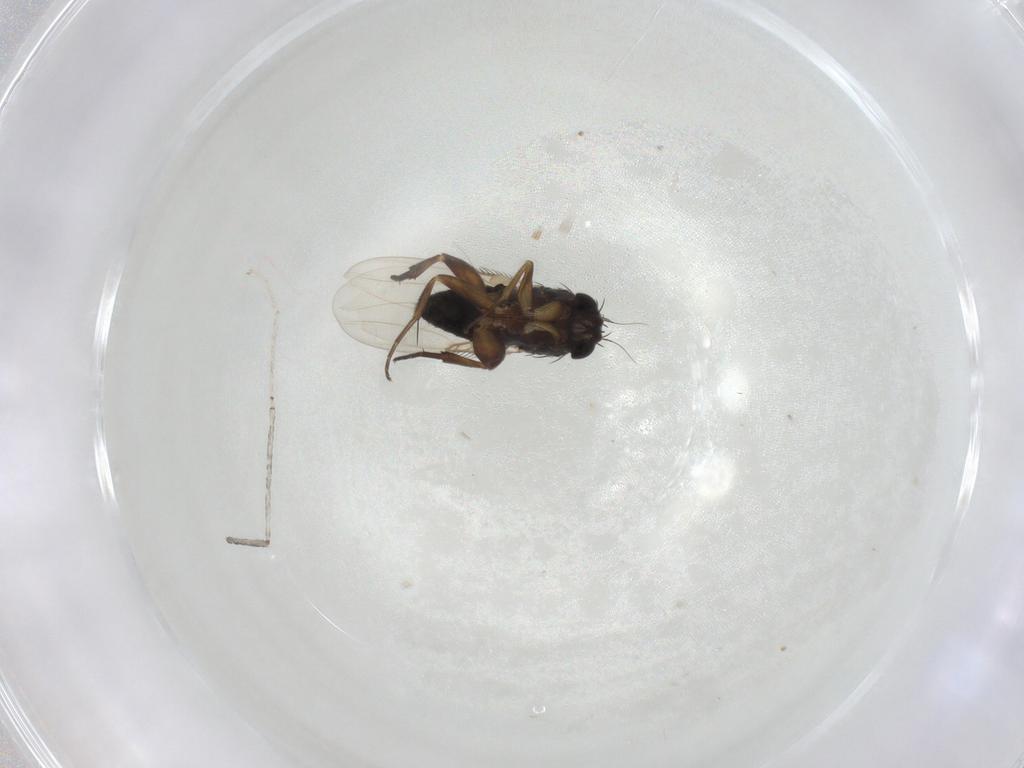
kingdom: Animalia
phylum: Arthropoda
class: Insecta
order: Diptera
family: Cecidomyiidae
